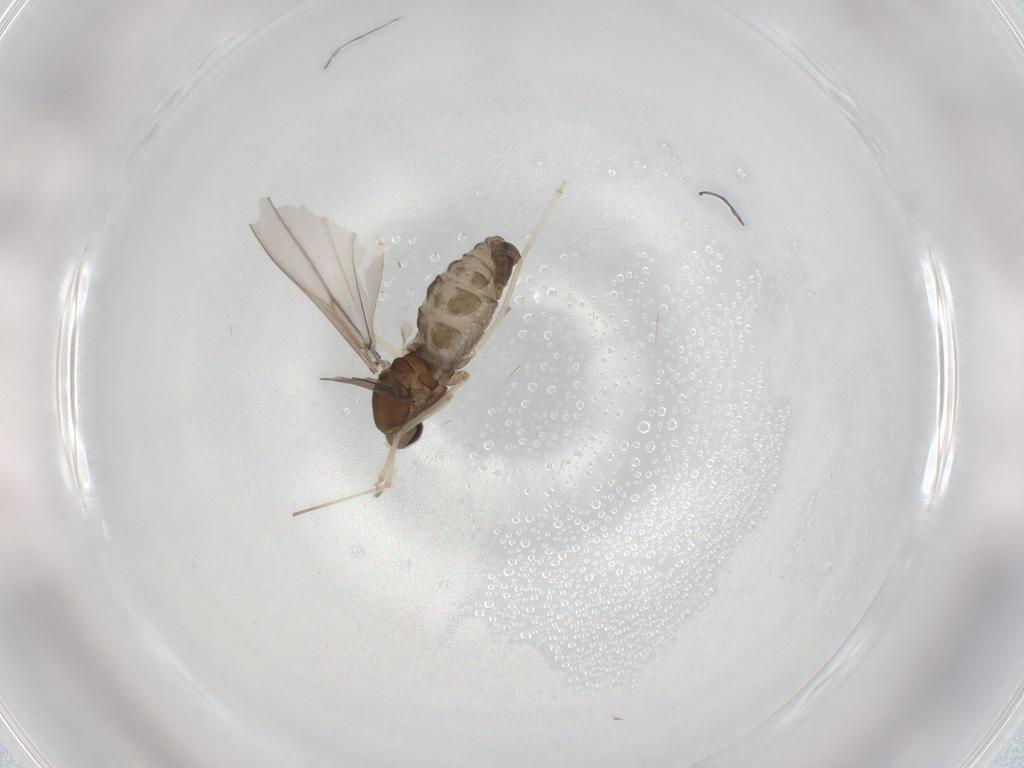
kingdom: Animalia
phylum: Arthropoda
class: Insecta
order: Diptera
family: Cecidomyiidae
